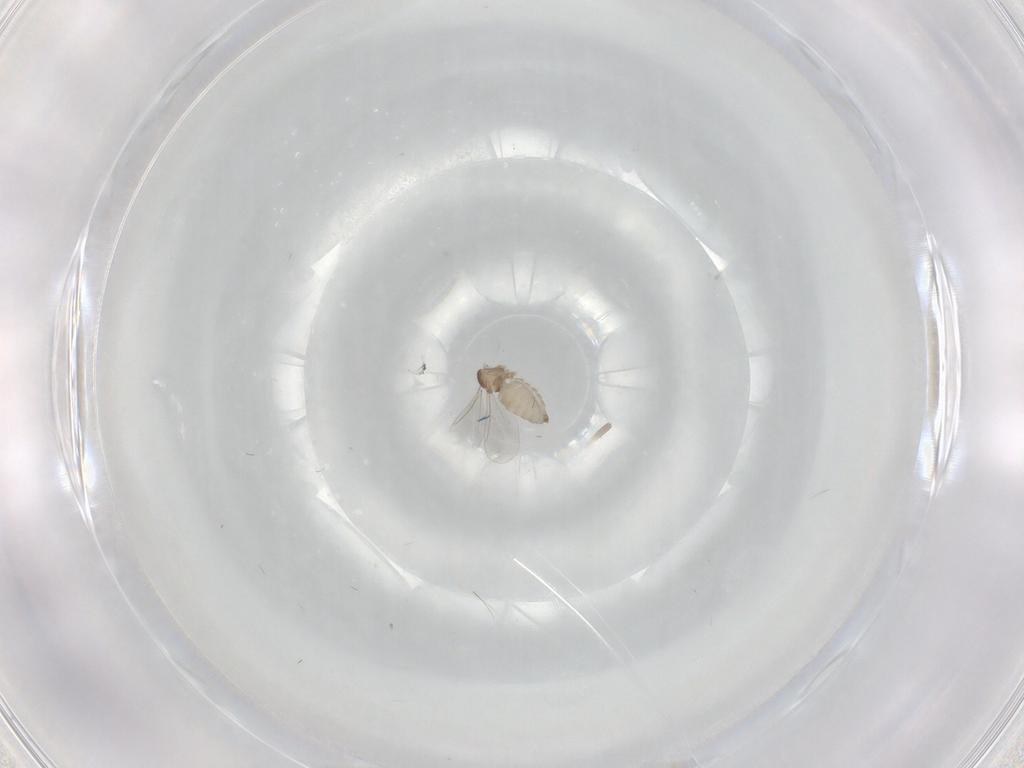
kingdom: Animalia
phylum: Arthropoda
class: Insecta
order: Diptera
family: Cecidomyiidae
